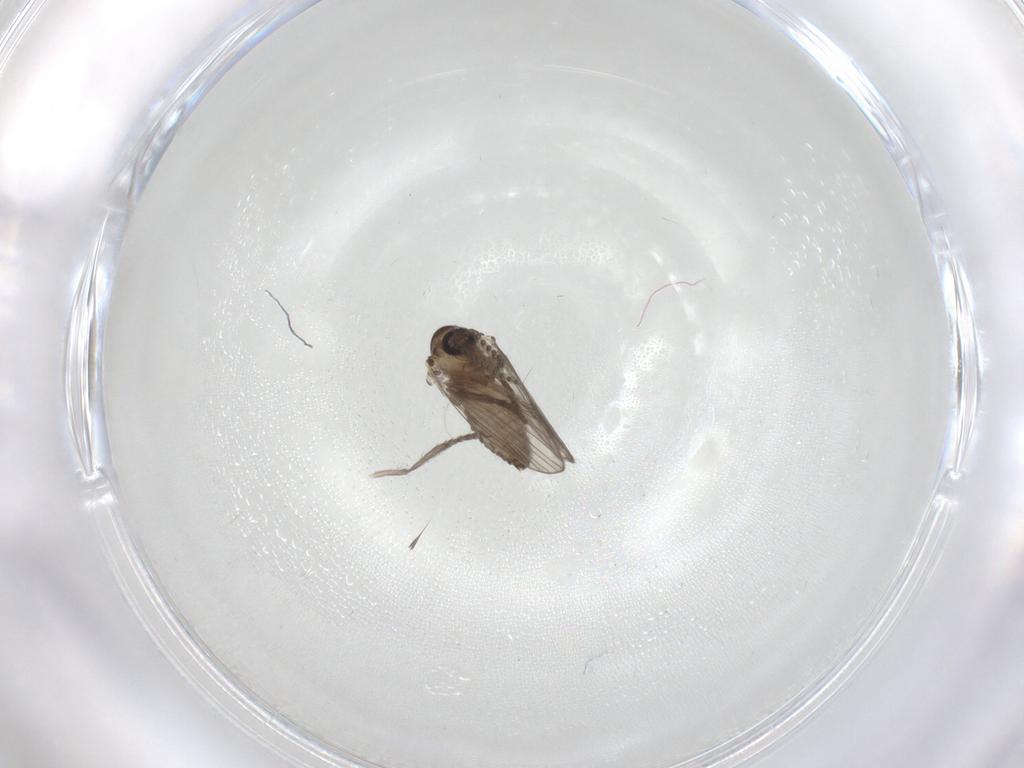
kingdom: Animalia
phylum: Arthropoda
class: Insecta
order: Diptera
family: Psychodidae
